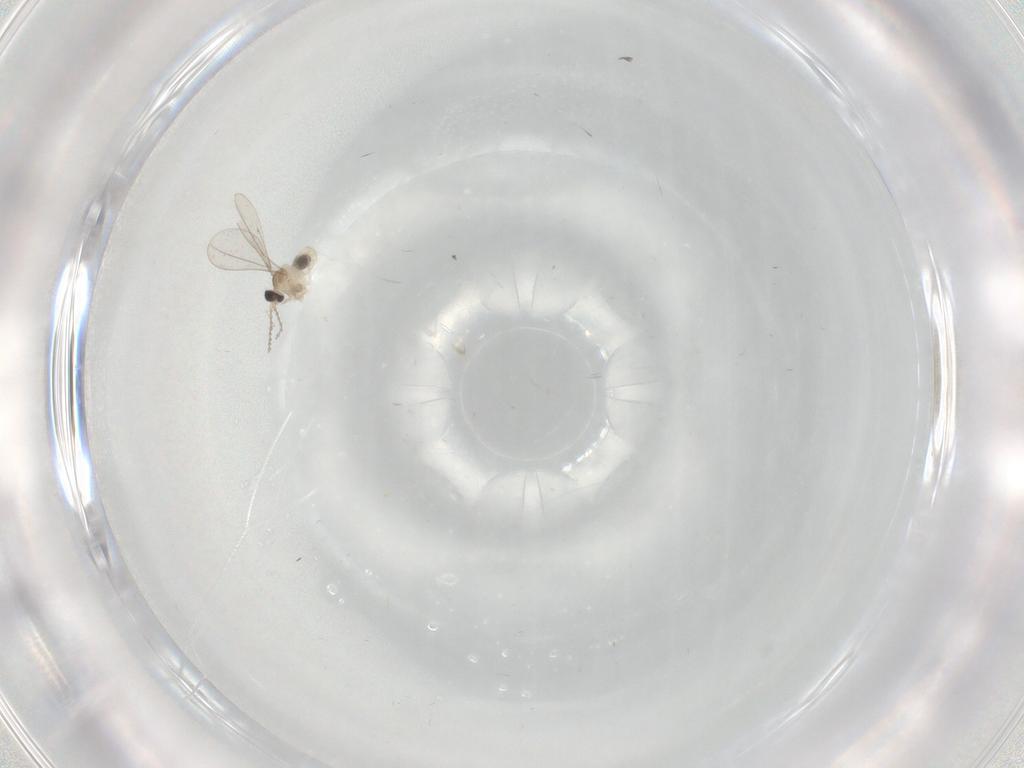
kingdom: Animalia
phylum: Arthropoda
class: Insecta
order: Diptera
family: Cecidomyiidae
